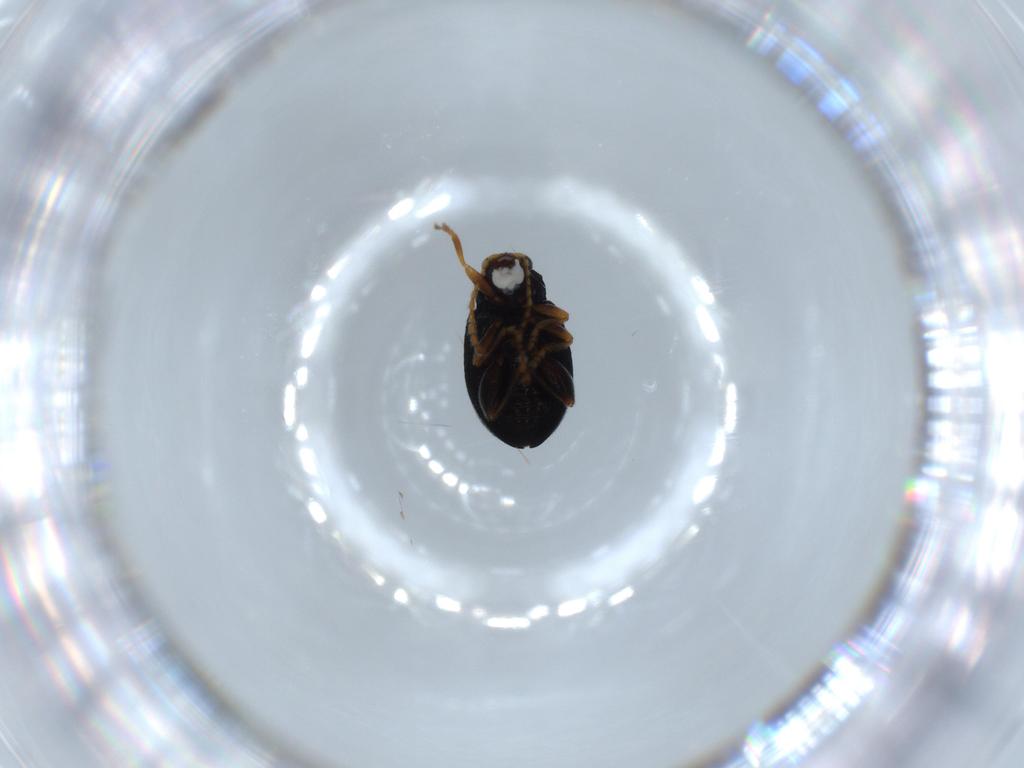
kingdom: Animalia
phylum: Arthropoda
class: Insecta
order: Coleoptera
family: Chrysomelidae
